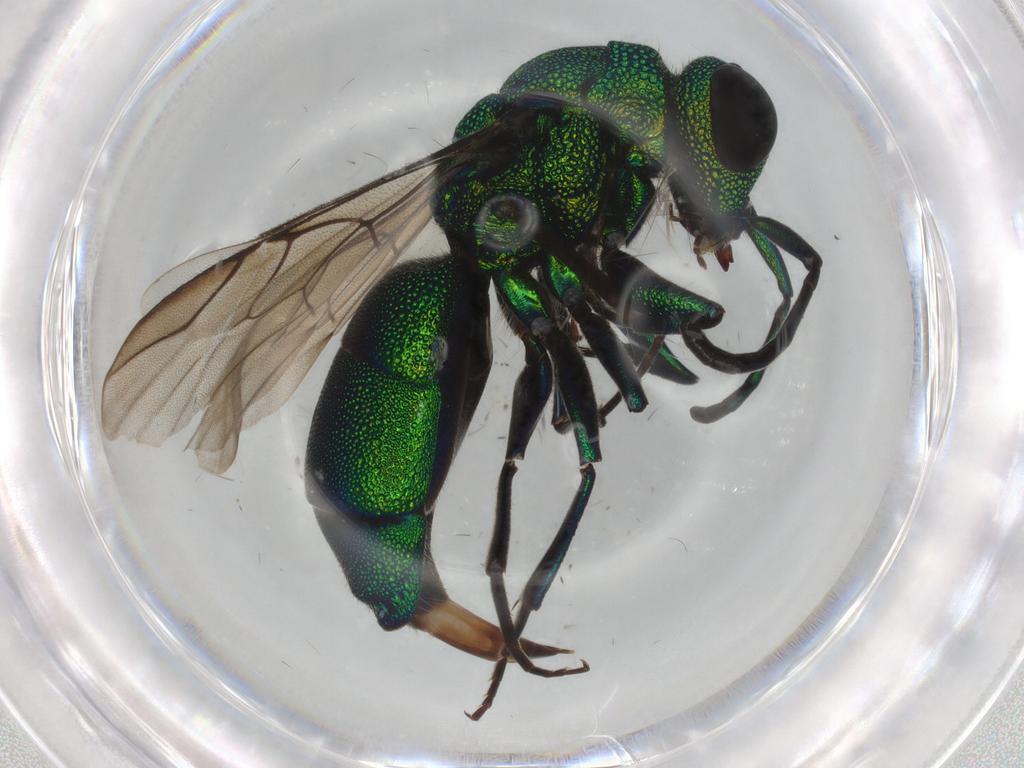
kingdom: Animalia
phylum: Arthropoda
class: Insecta
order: Hymenoptera
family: Chrysididae
